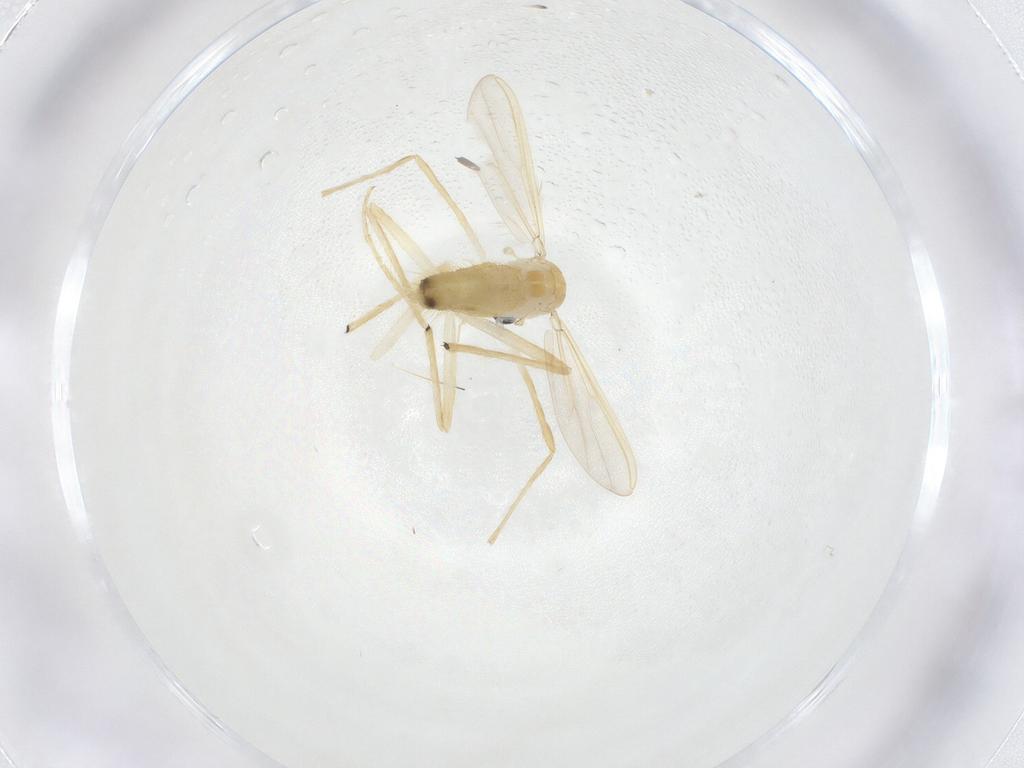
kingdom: Animalia
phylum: Arthropoda
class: Insecta
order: Diptera
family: Chironomidae
